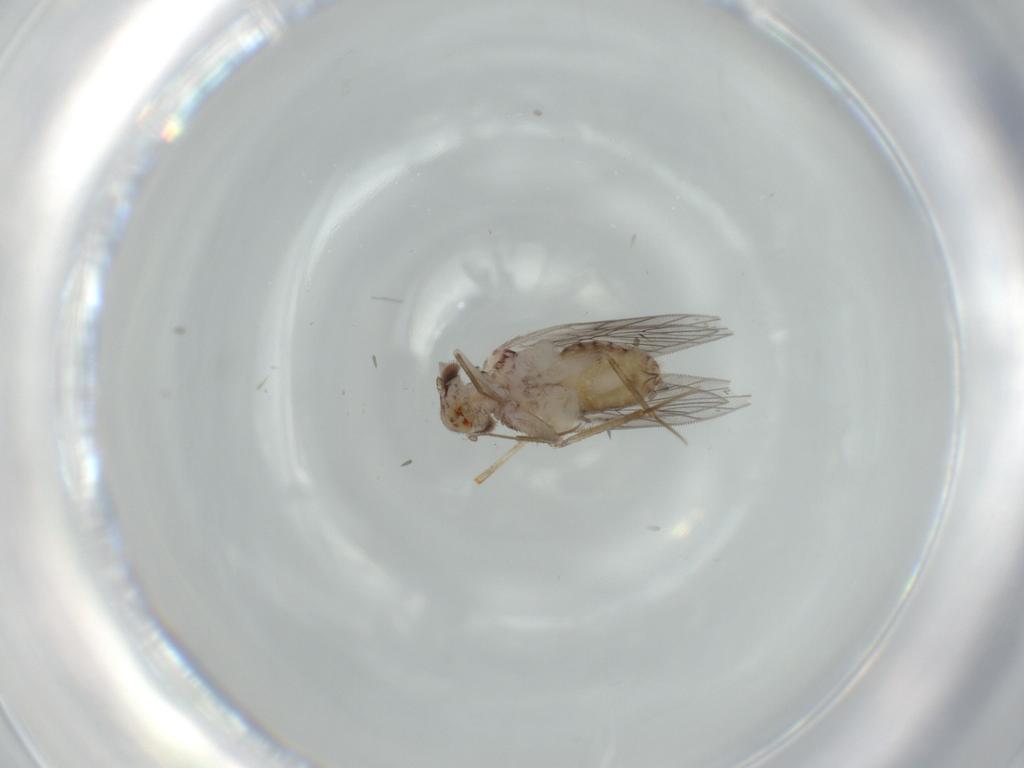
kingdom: Animalia
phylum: Arthropoda
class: Insecta
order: Psocodea
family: Lepidopsocidae
